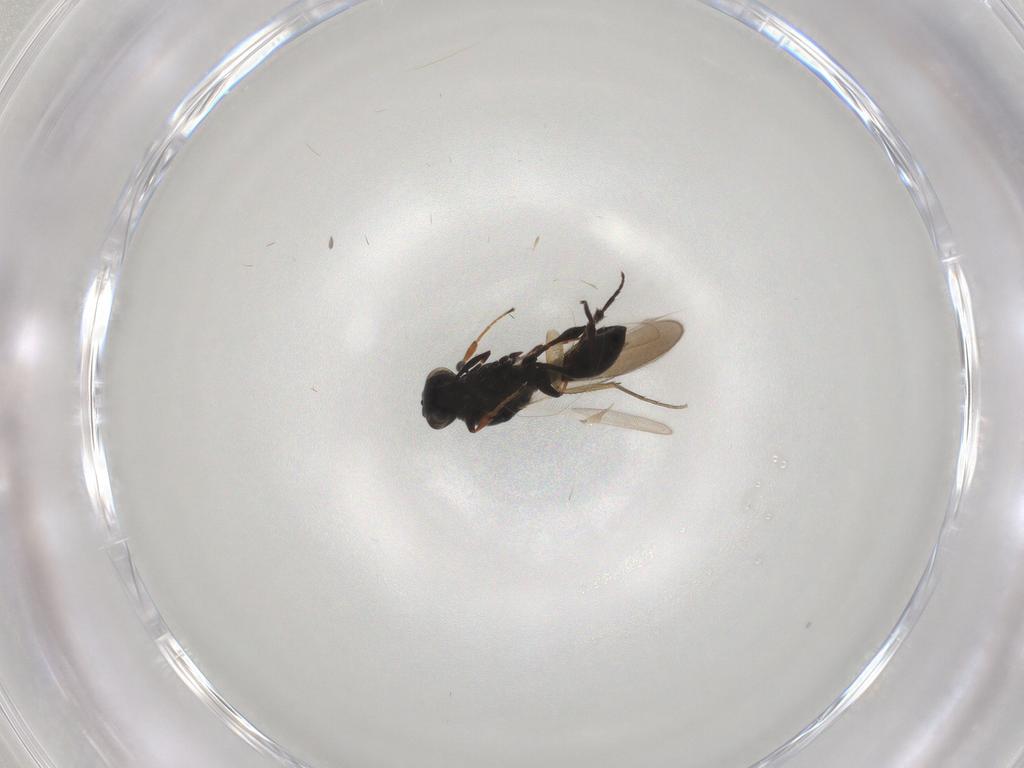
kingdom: Animalia
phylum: Arthropoda
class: Insecta
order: Hymenoptera
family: Platygastridae
